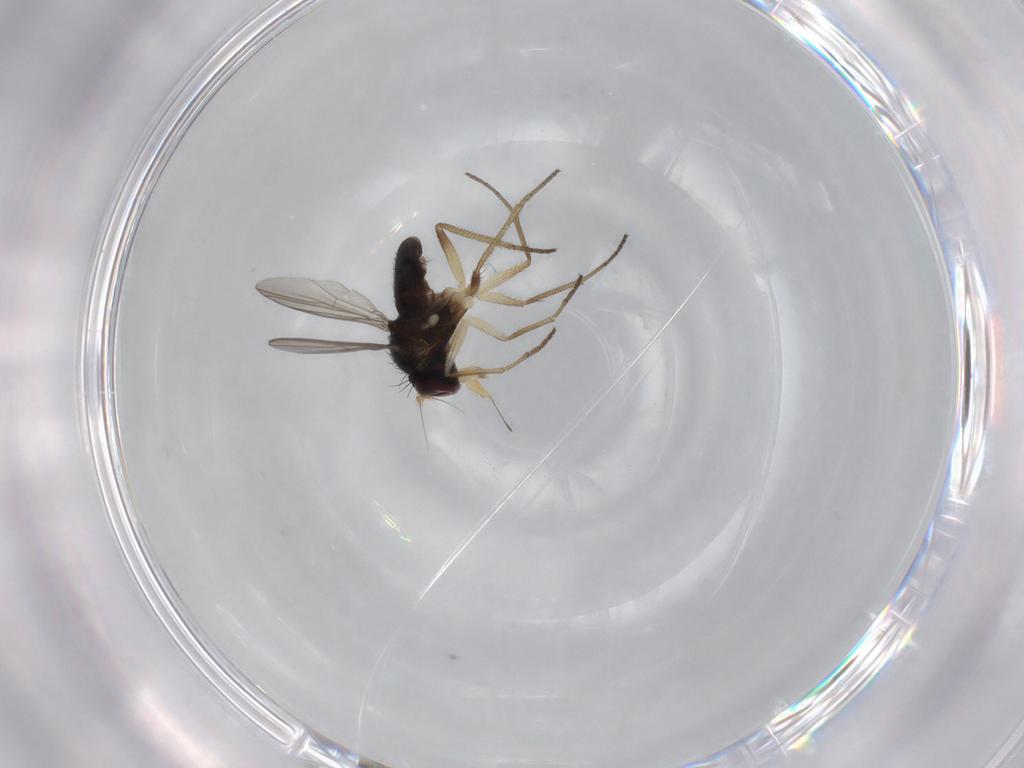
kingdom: Animalia
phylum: Arthropoda
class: Insecta
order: Diptera
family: Dolichopodidae
